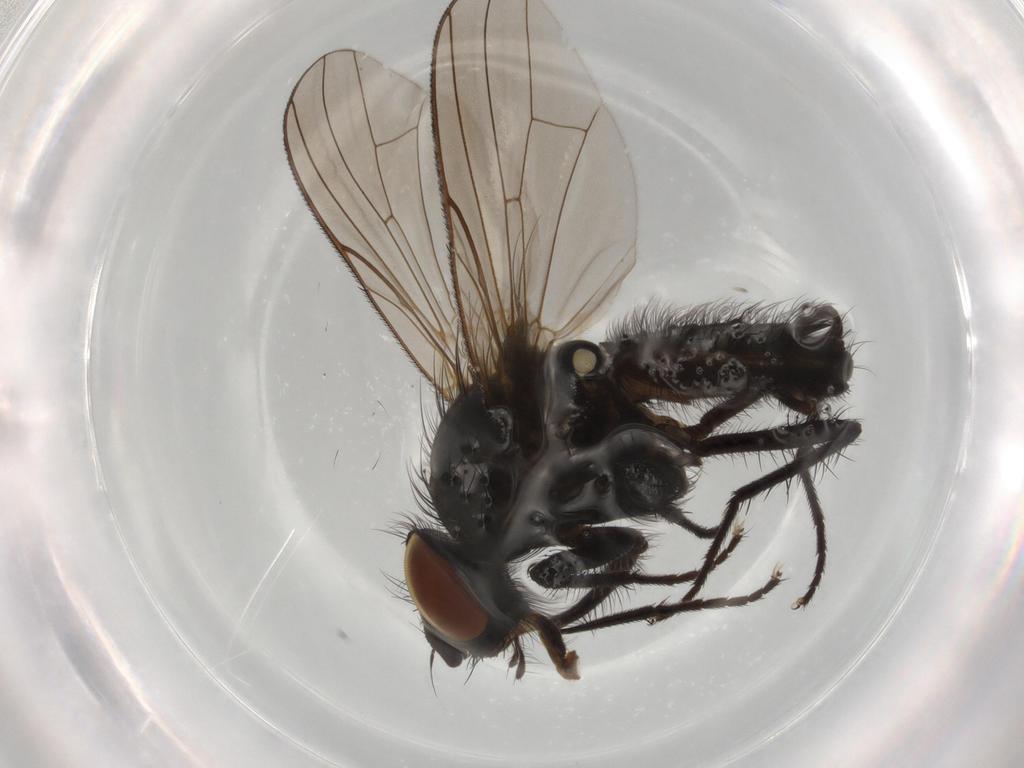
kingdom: Animalia
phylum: Arthropoda
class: Insecta
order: Diptera
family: Anthomyiidae
